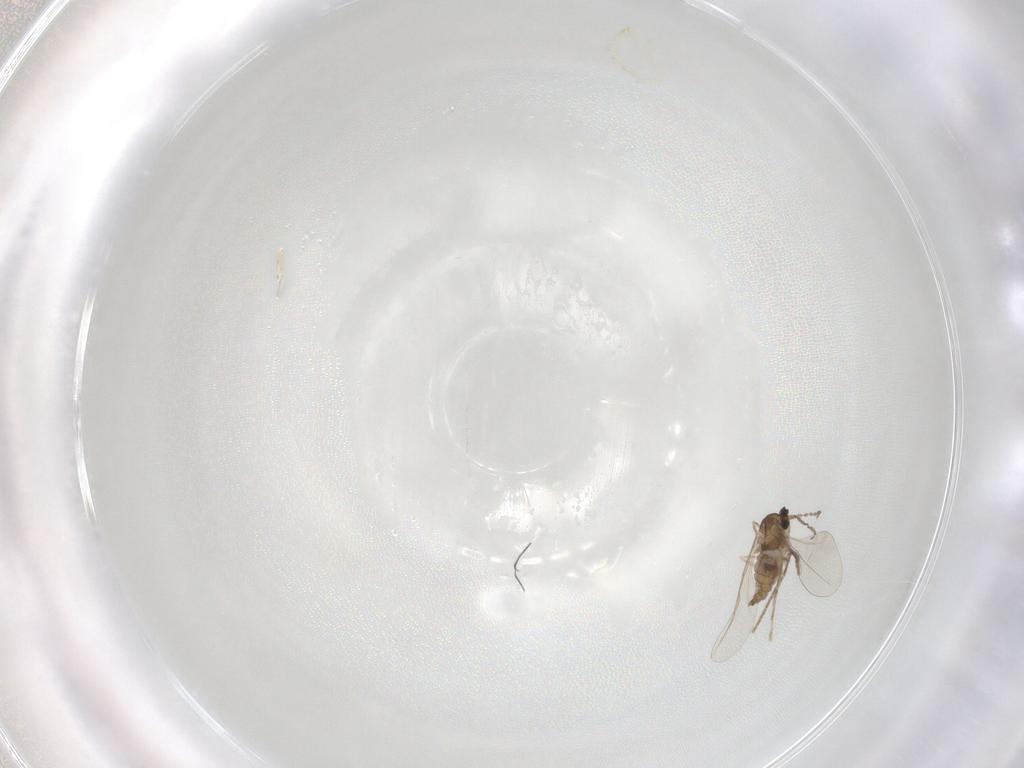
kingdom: Animalia
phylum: Arthropoda
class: Insecta
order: Diptera
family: Cecidomyiidae
